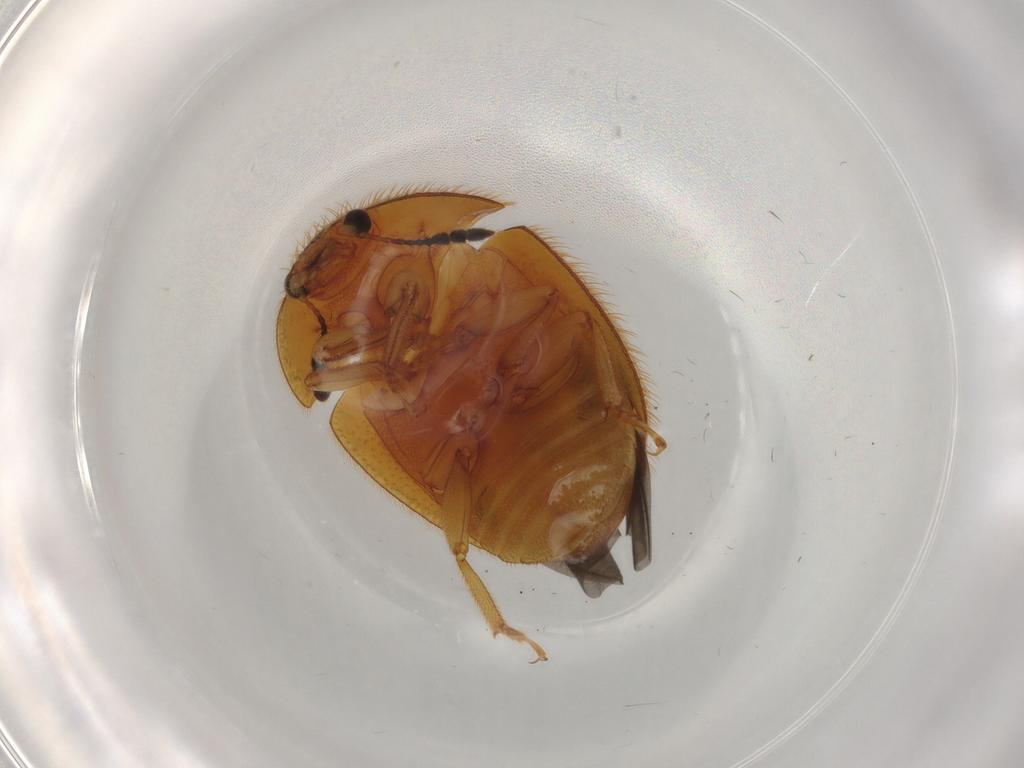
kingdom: Animalia
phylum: Arthropoda
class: Insecta
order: Coleoptera
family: Nitidulidae
